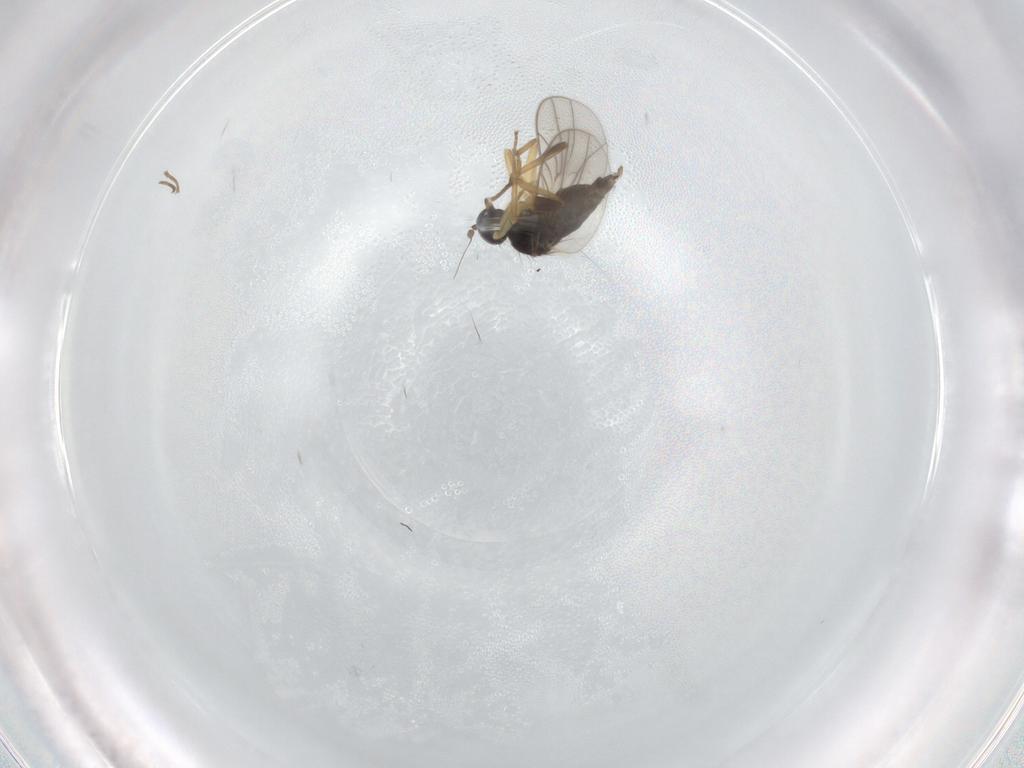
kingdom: Animalia
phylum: Arthropoda
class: Insecta
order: Diptera
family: Hybotidae
